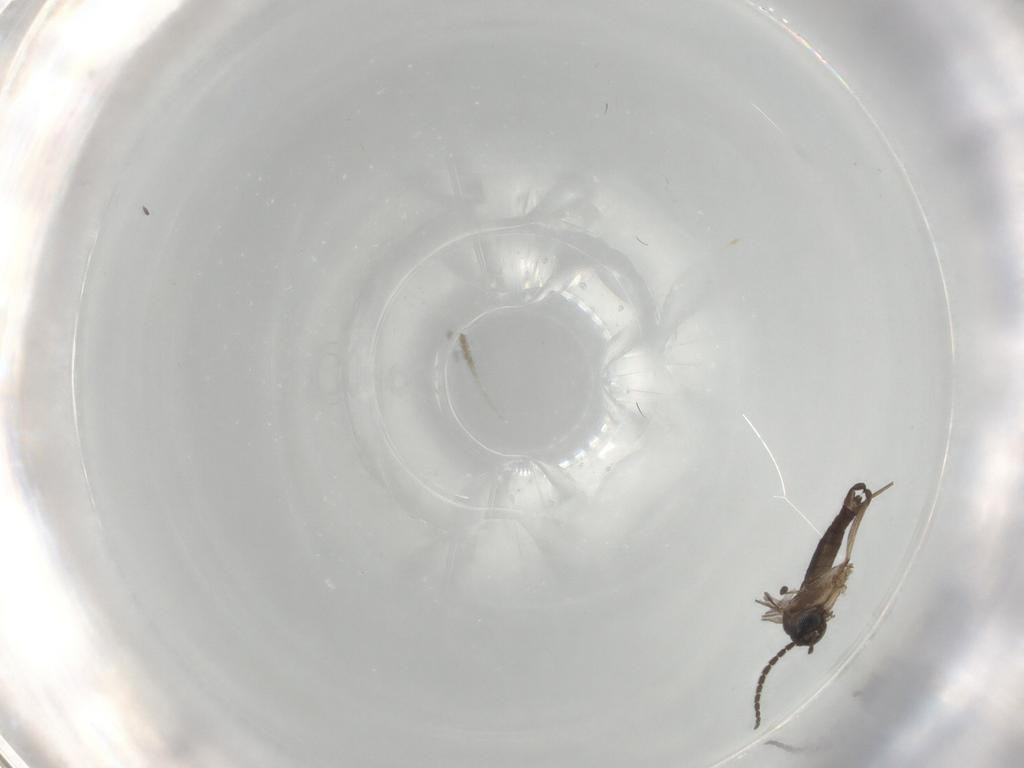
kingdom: Animalia
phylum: Arthropoda
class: Insecta
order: Diptera
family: Sciaridae
